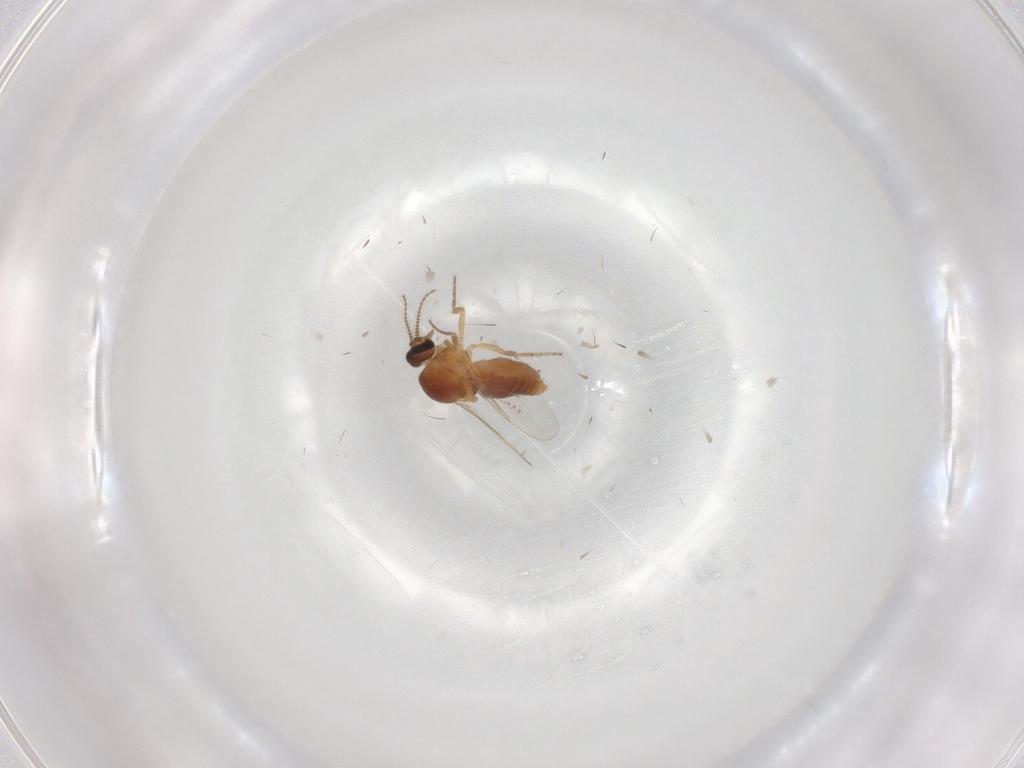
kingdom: Animalia
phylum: Arthropoda
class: Insecta
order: Diptera
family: Ceratopogonidae
